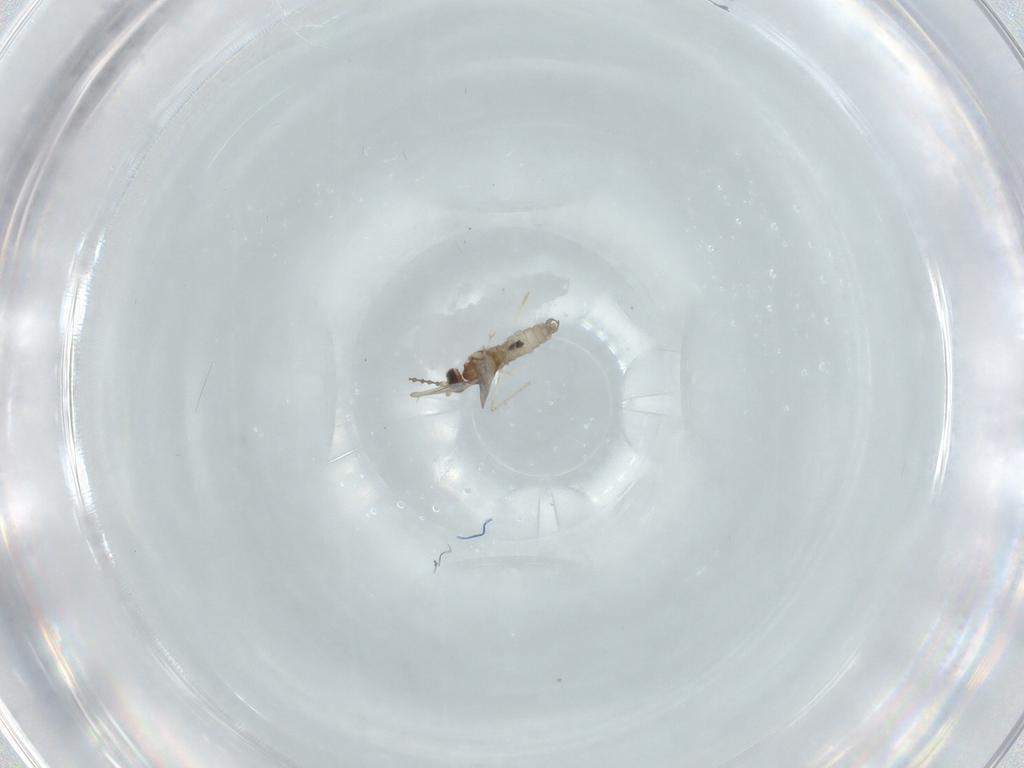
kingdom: Animalia
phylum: Arthropoda
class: Insecta
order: Diptera
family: Cecidomyiidae
